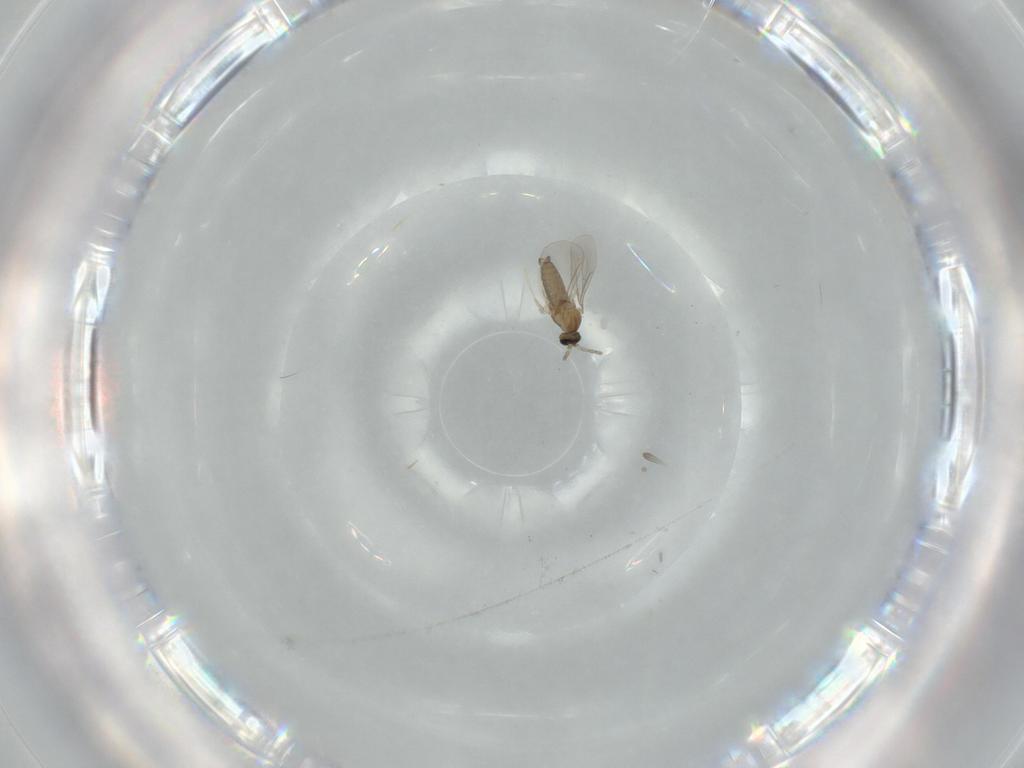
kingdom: Animalia
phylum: Arthropoda
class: Insecta
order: Diptera
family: Cecidomyiidae
